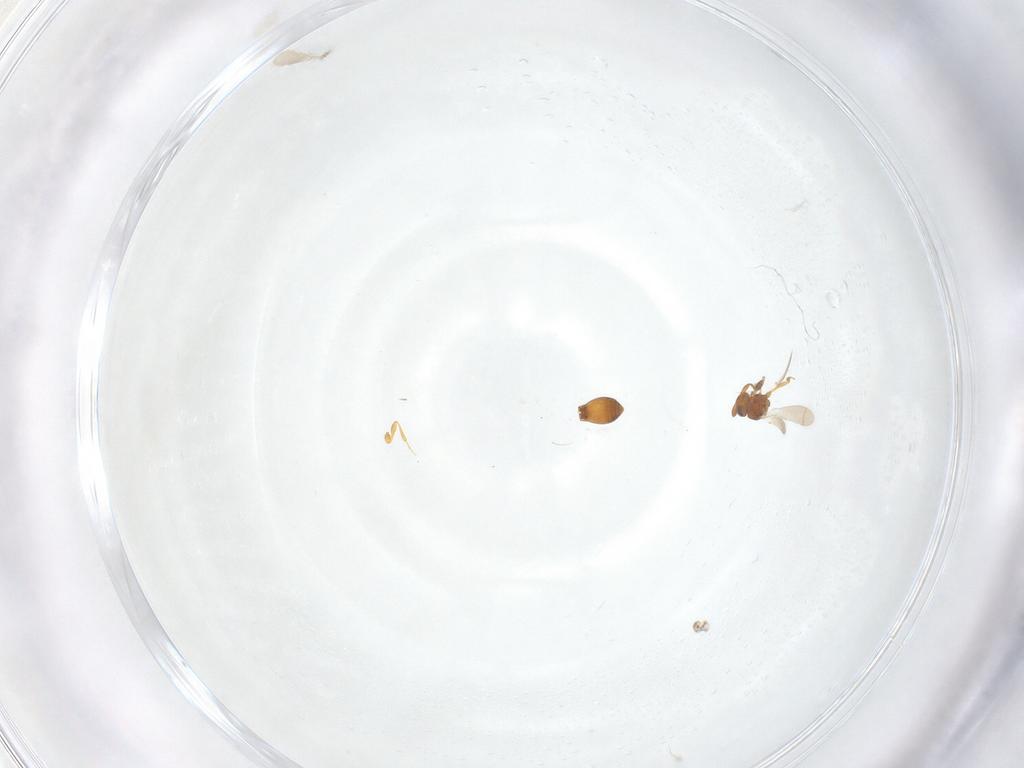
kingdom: Animalia
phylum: Arthropoda
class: Insecta
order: Hymenoptera
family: Platygastridae
